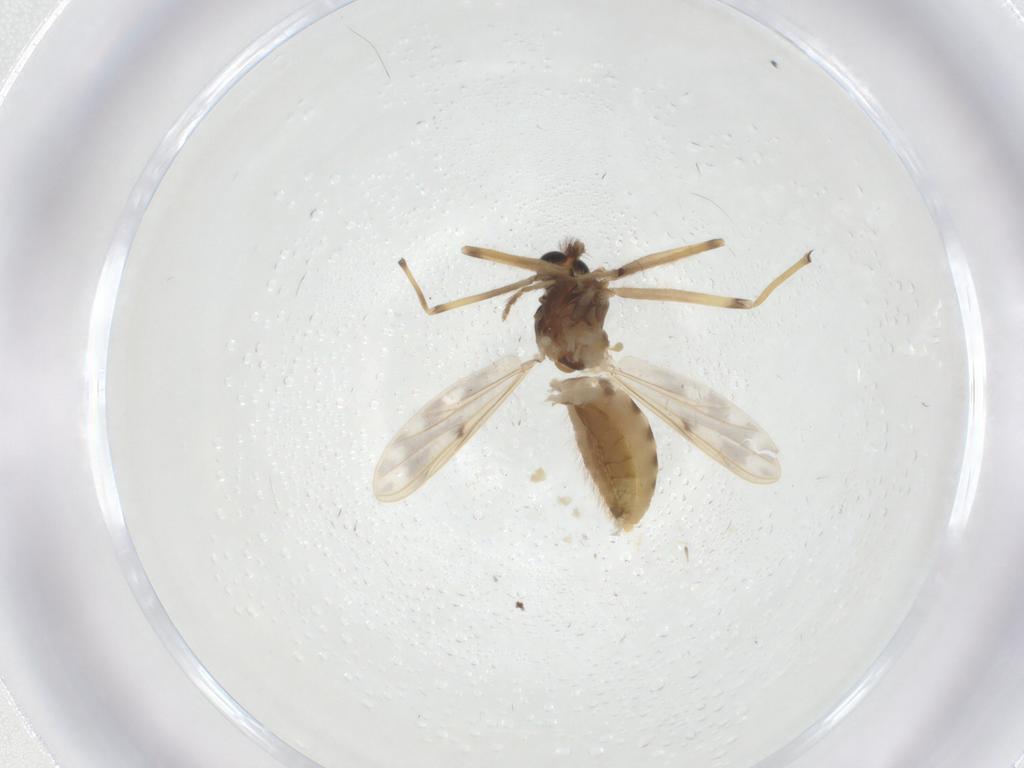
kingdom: Animalia
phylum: Arthropoda
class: Insecta
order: Diptera
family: Chironomidae
